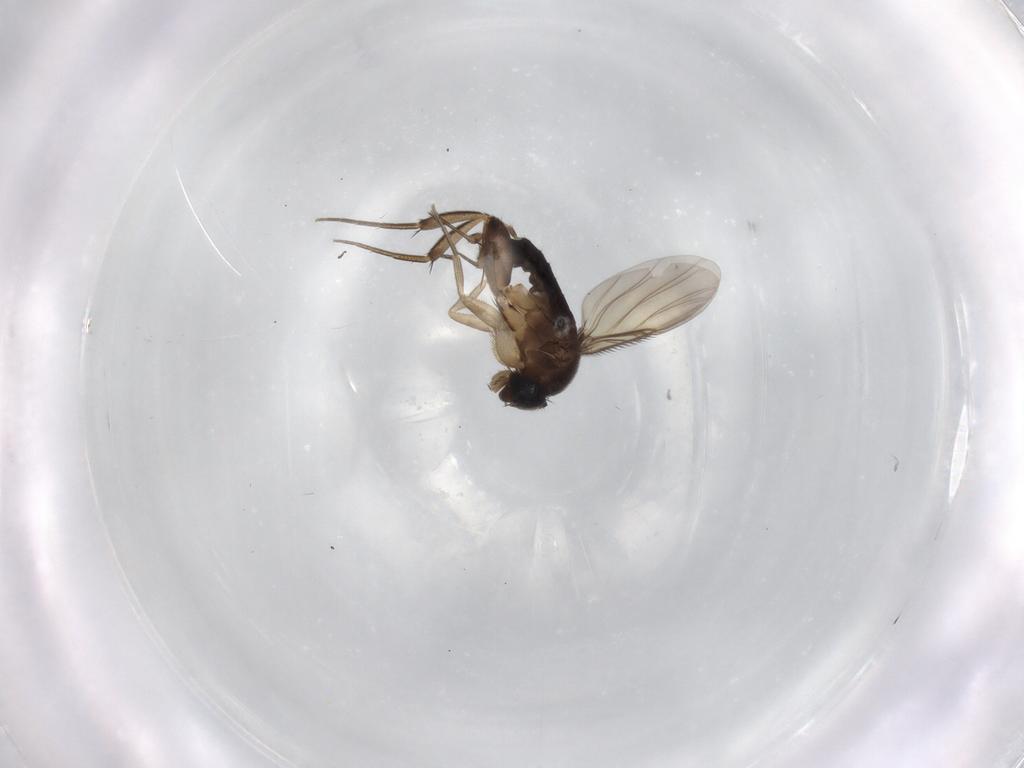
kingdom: Animalia
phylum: Arthropoda
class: Insecta
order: Diptera
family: Phoridae
